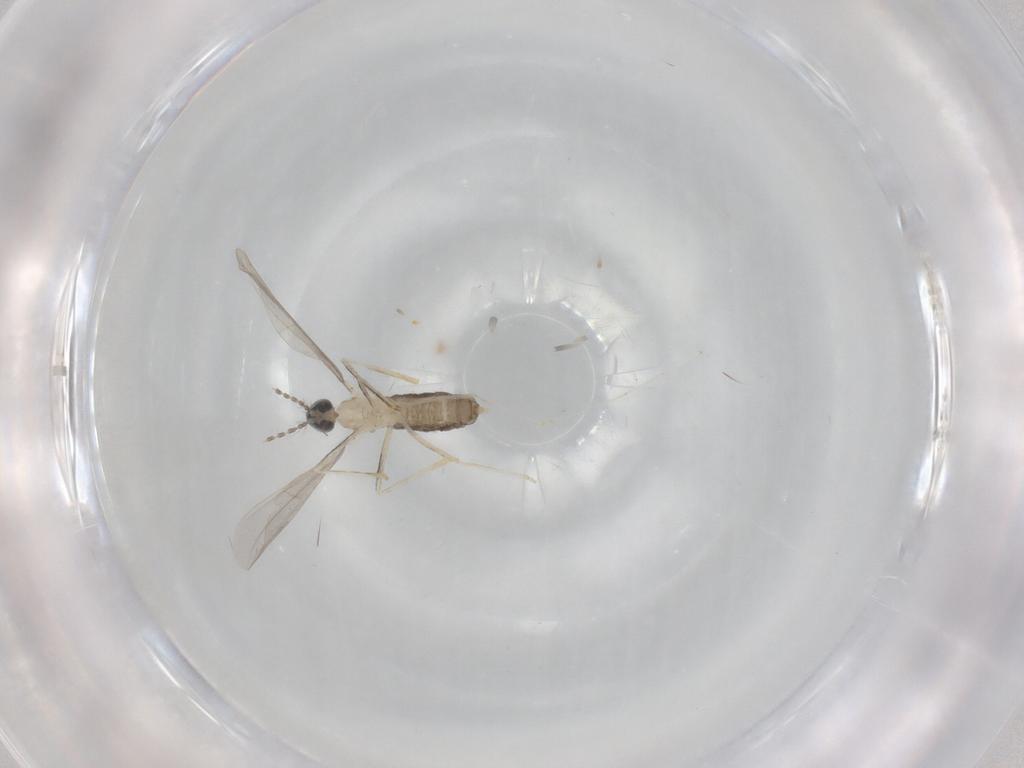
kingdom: Animalia
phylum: Arthropoda
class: Insecta
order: Diptera
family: Cecidomyiidae
